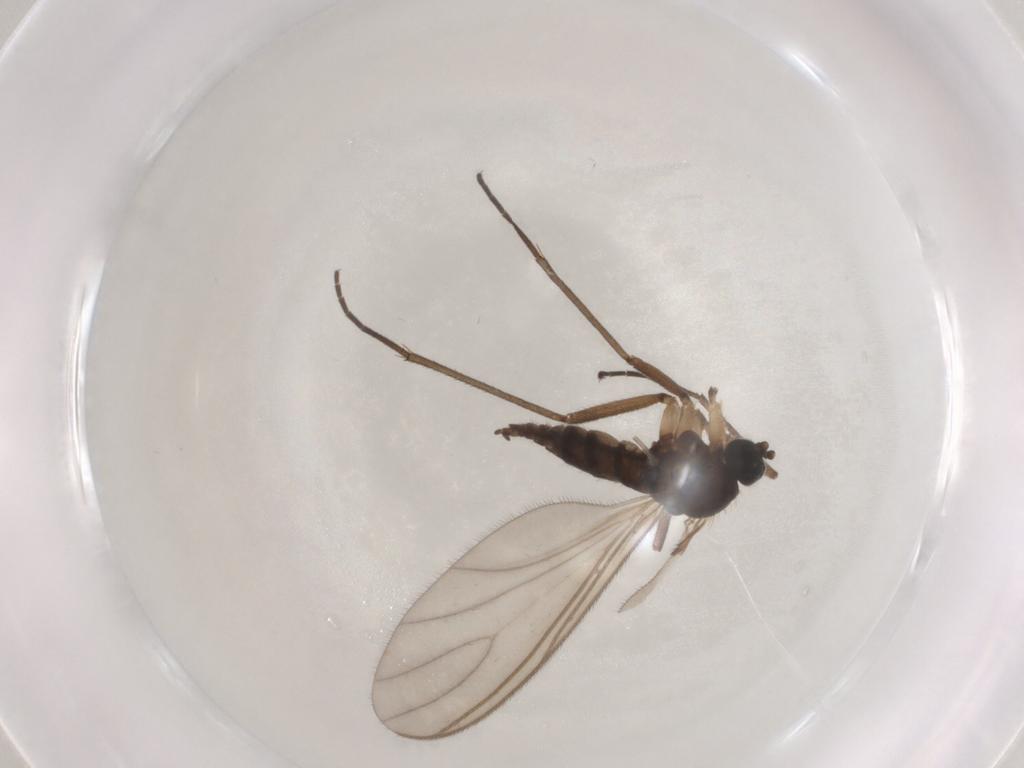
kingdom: Animalia
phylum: Arthropoda
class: Insecta
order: Diptera
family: Sciaridae
